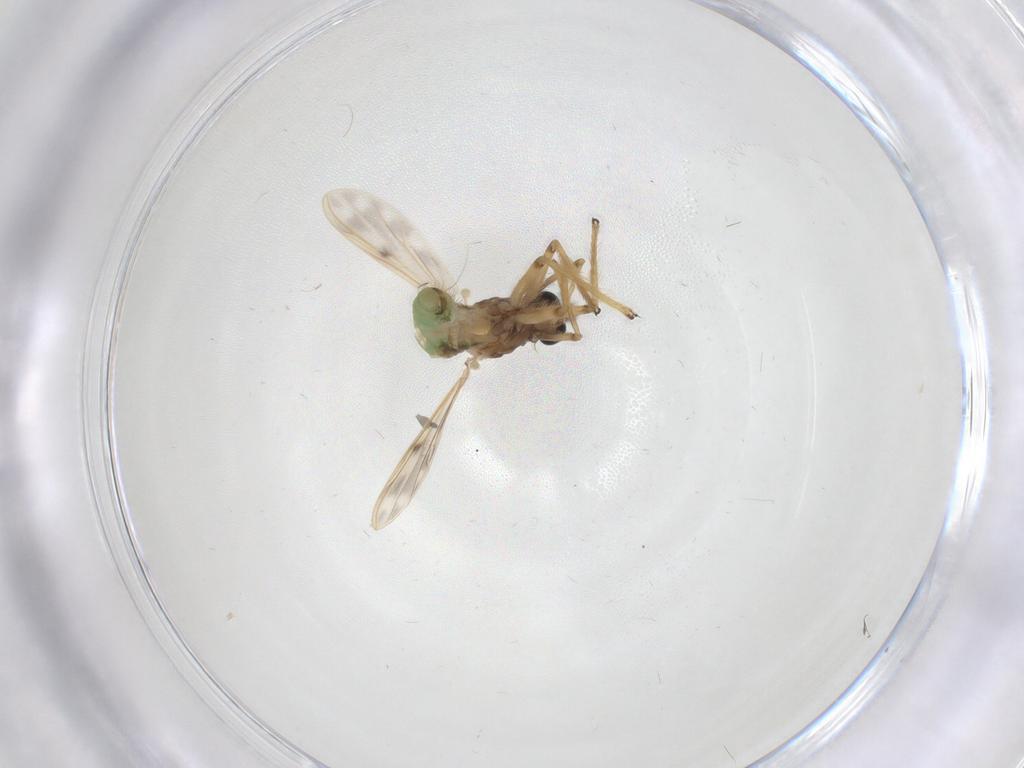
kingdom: Animalia
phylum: Arthropoda
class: Insecta
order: Diptera
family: Chironomidae
